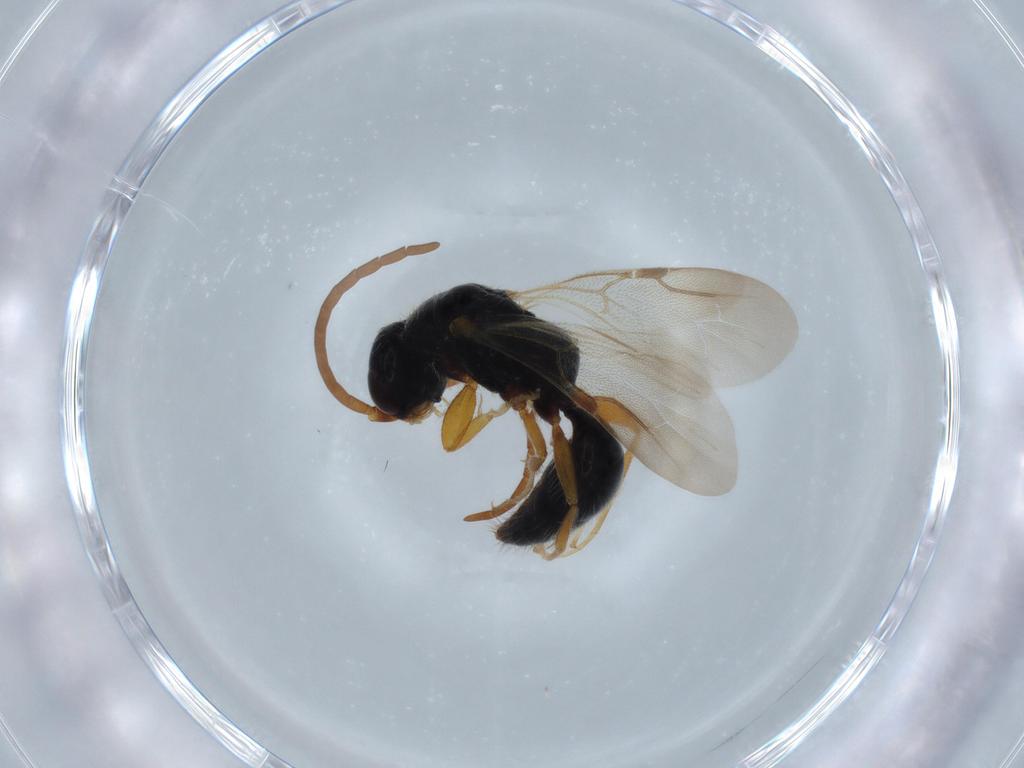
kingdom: Animalia
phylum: Arthropoda
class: Insecta
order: Hymenoptera
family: Bethylidae
